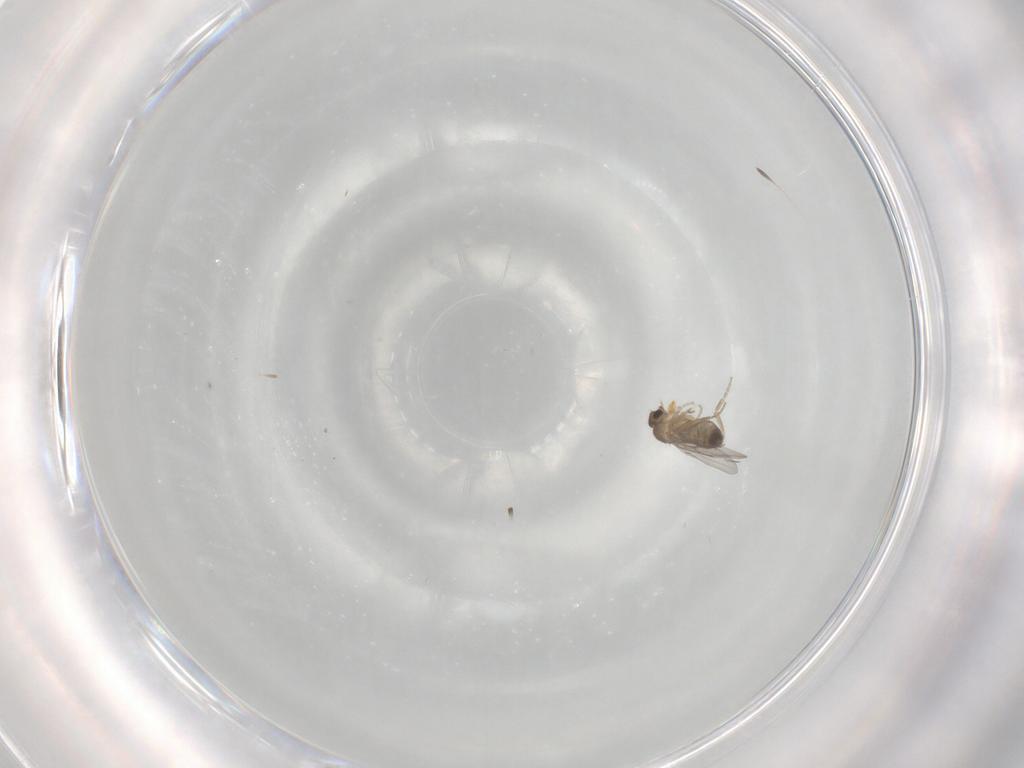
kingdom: Animalia
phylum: Arthropoda
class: Insecta
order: Diptera
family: Phoridae
